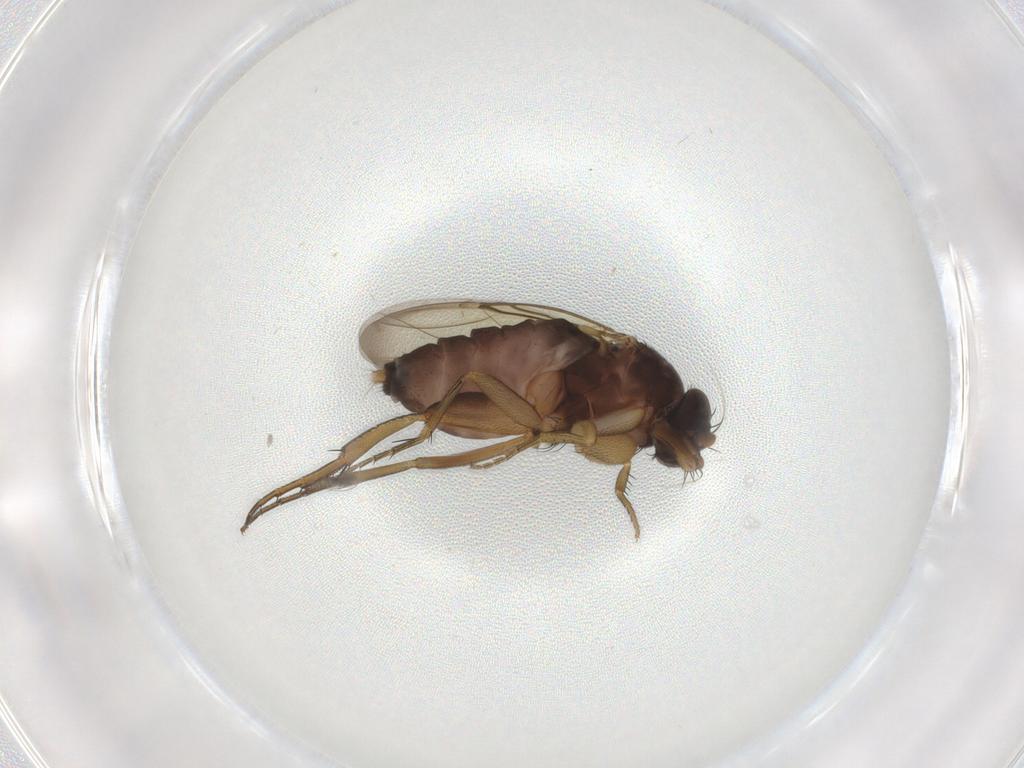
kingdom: Animalia
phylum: Arthropoda
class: Insecta
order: Diptera
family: Phoridae
